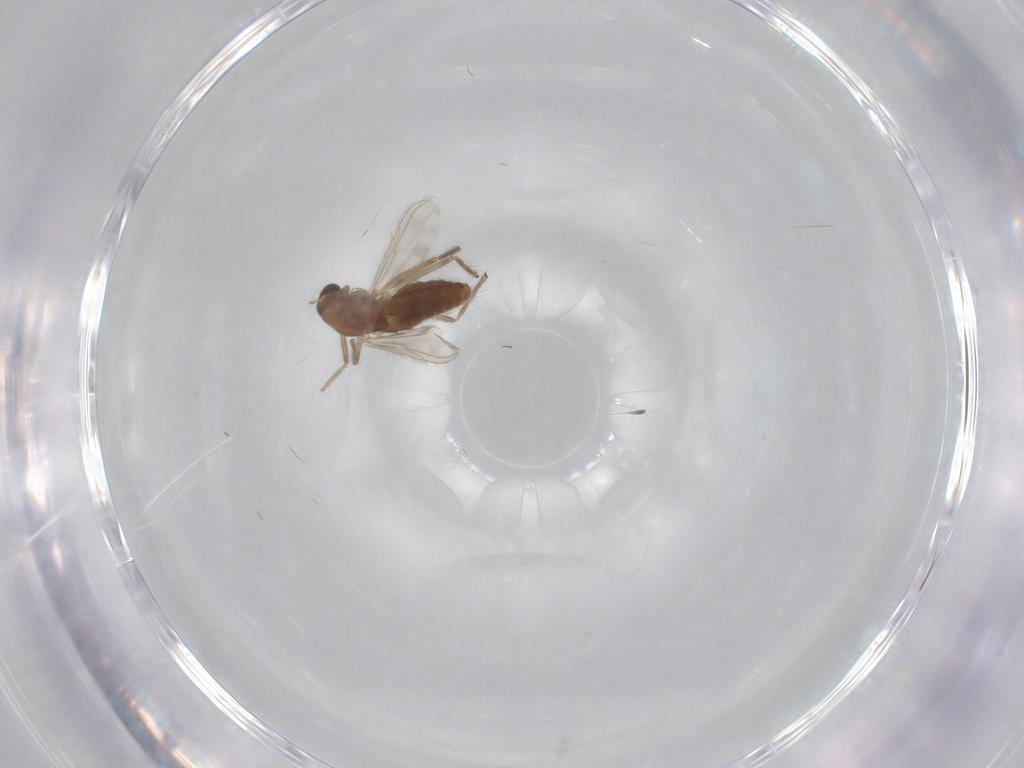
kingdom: Animalia
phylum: Arthropoda
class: Insecta
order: Diptera
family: Chironomidae
